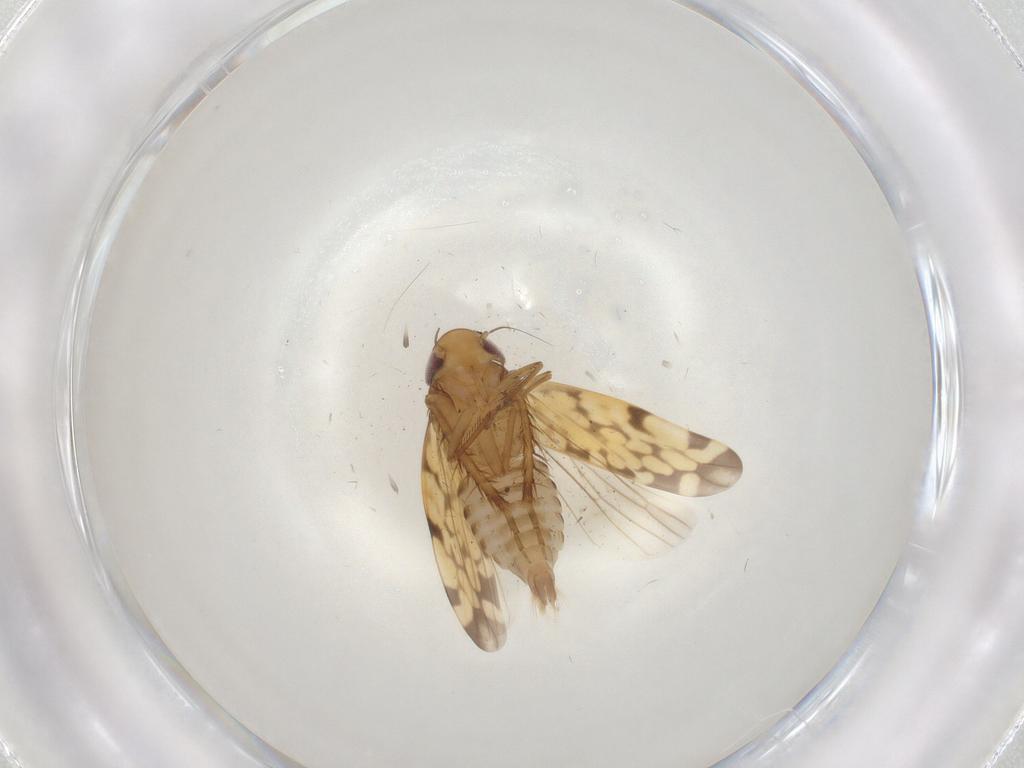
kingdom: Animalia
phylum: Arthropoda
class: Insecta
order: Hemiptera
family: Cicadellidae
